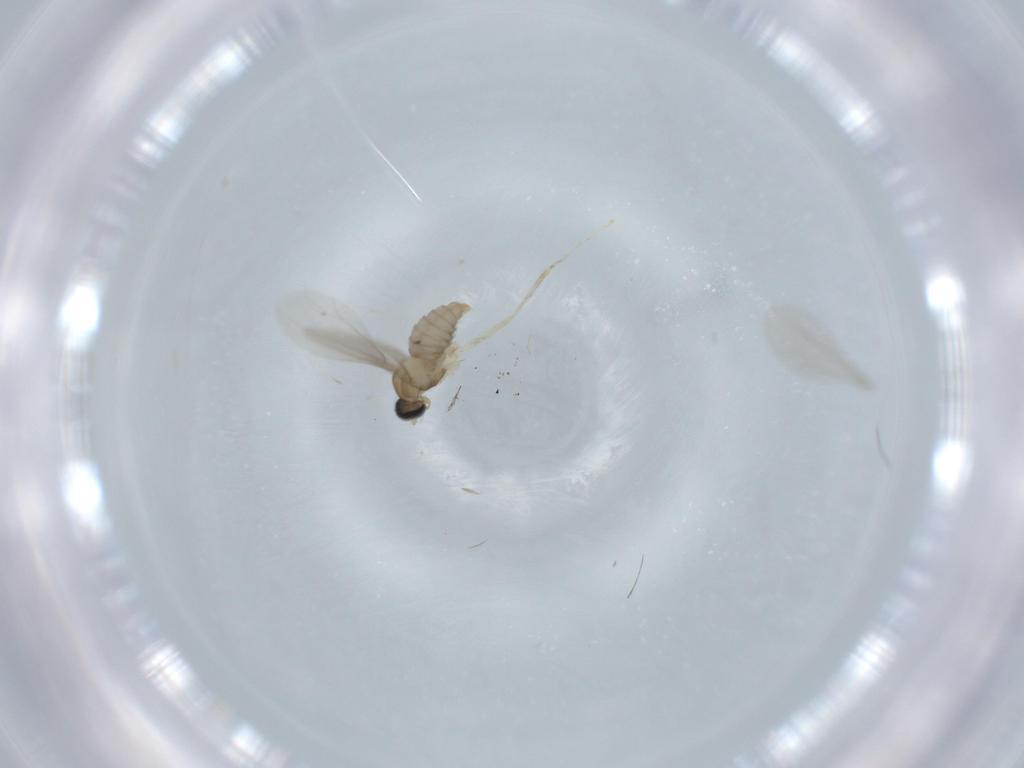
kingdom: Animalia
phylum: Arthropoda
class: Insecta
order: Diptera
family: Cecidomyiidae
